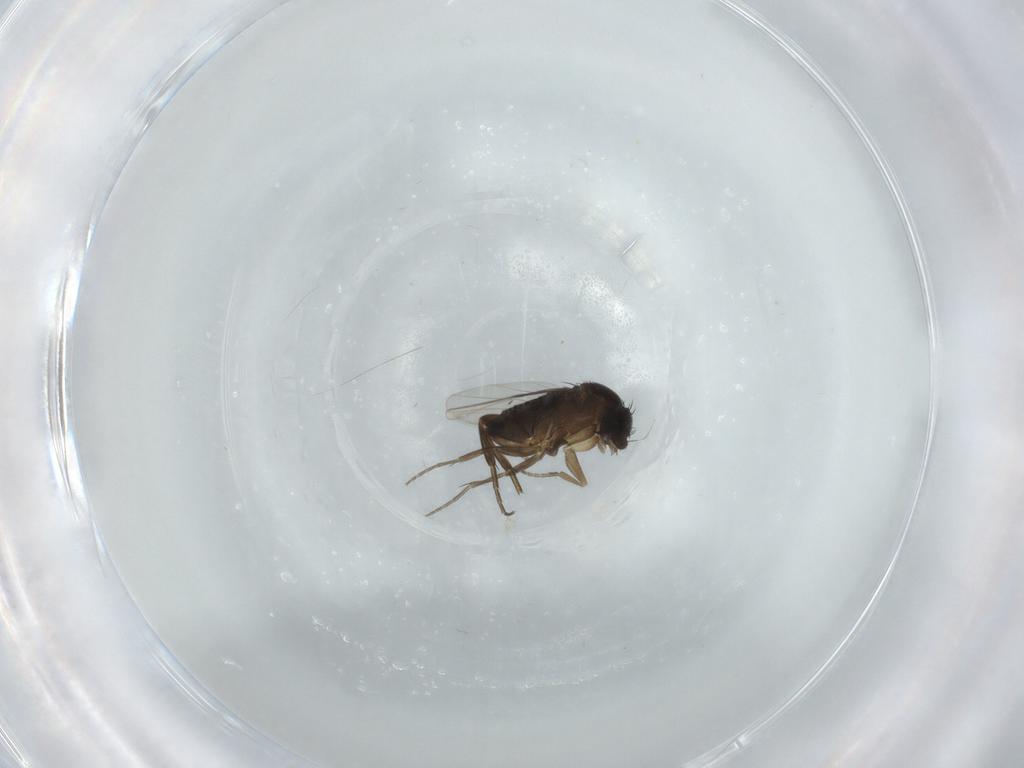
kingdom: Animalia
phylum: Arthropoda
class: Insecta
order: Diptera
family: Phoridae
